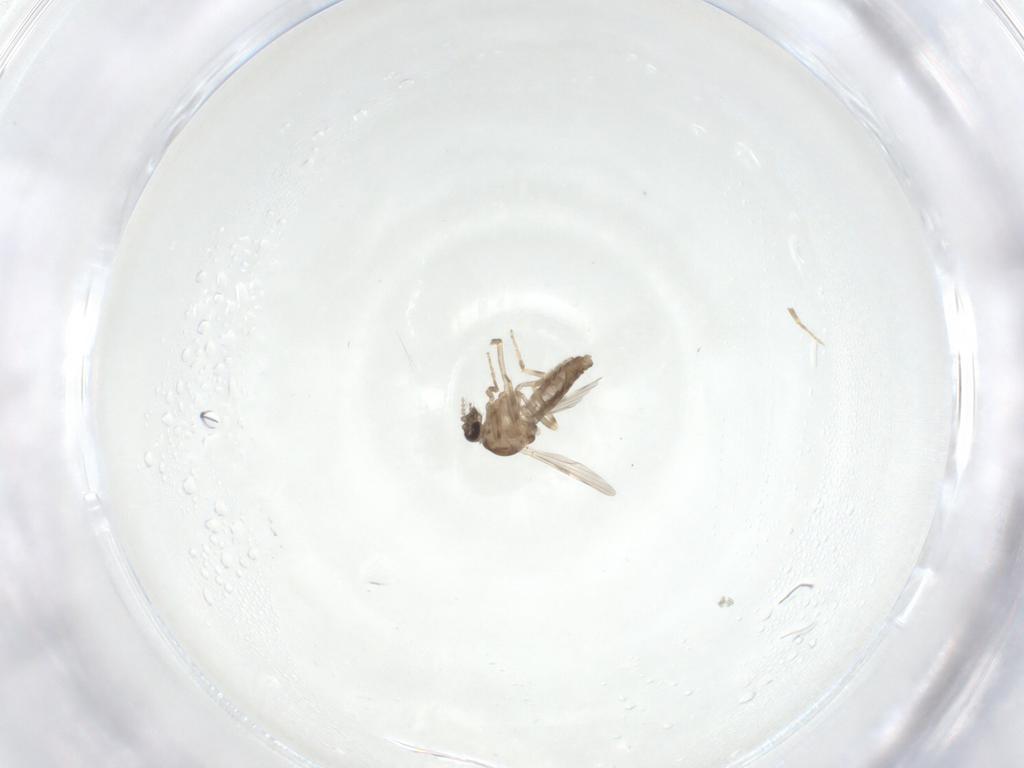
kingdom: Animalia
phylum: Arthropoda
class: Insecta
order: Diptera
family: Ceratopogonidae
